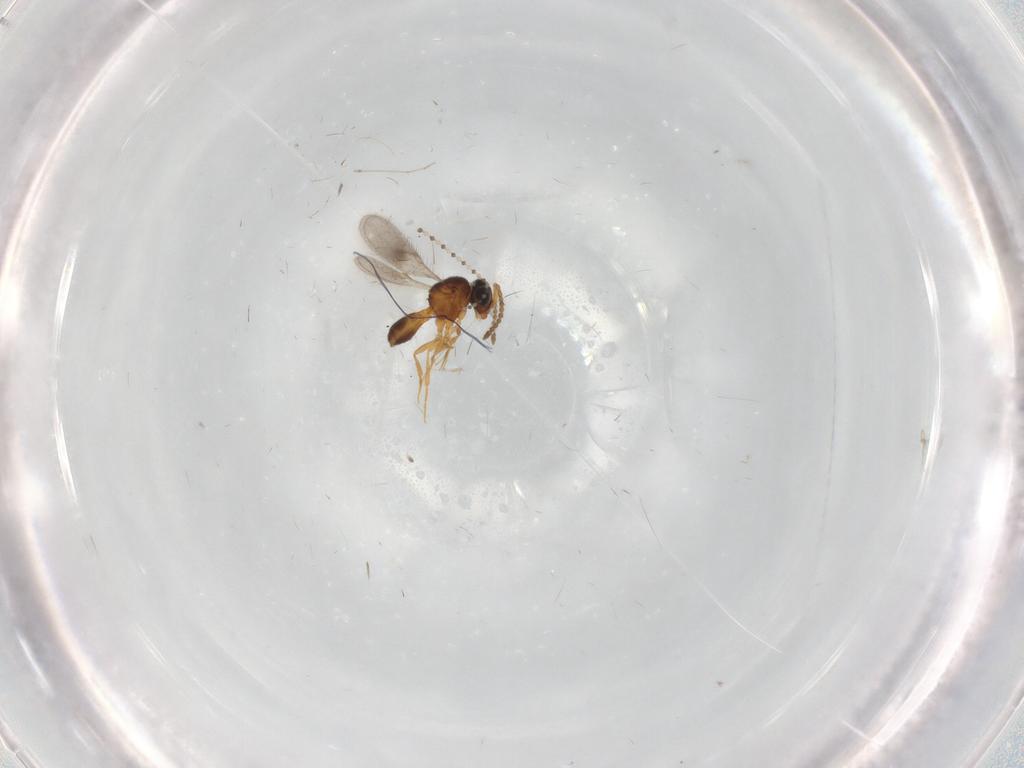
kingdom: Animalia
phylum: Arthropoda
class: Insecta
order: Hymenoptera
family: Scelionidae
